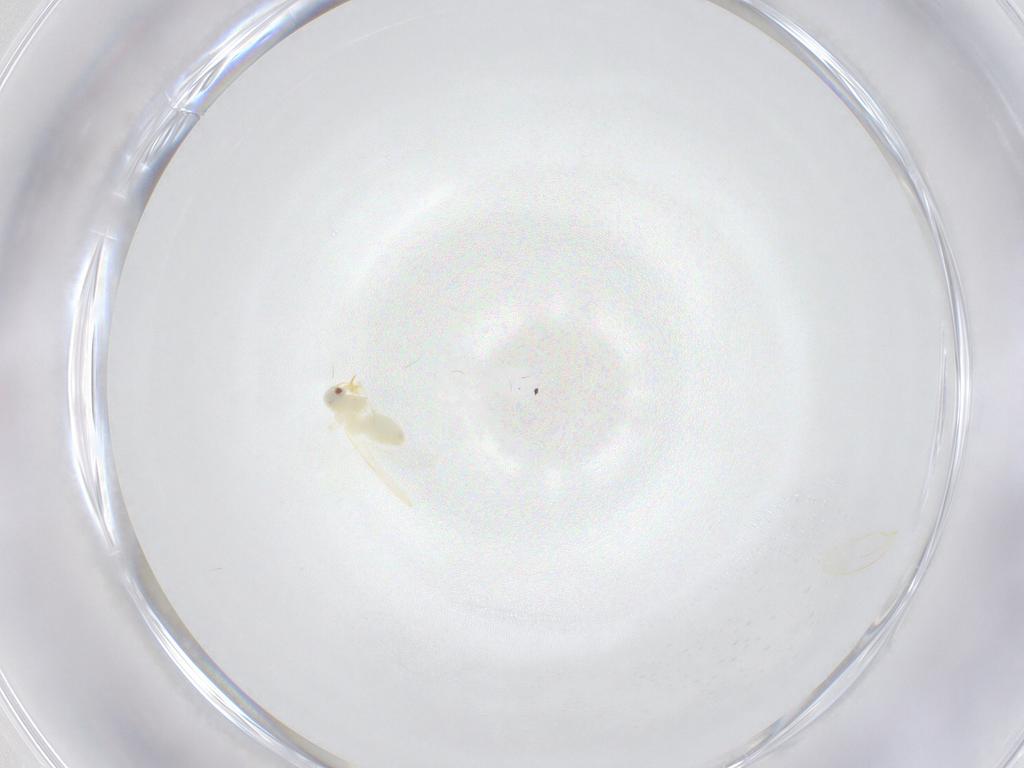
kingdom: Animalia
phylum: Arthropoda
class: Insecta
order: Hemiptera
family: Aleyrodidae
